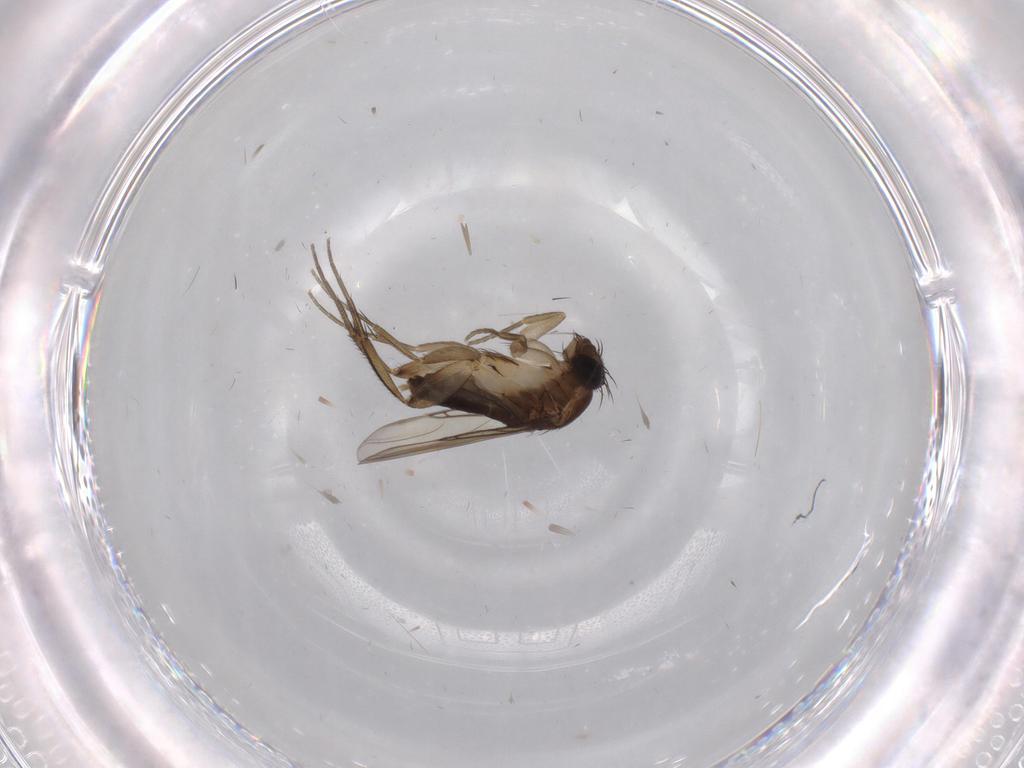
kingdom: Animalia
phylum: Arthropoda
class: Insecta
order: Diptera
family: Phoridae
